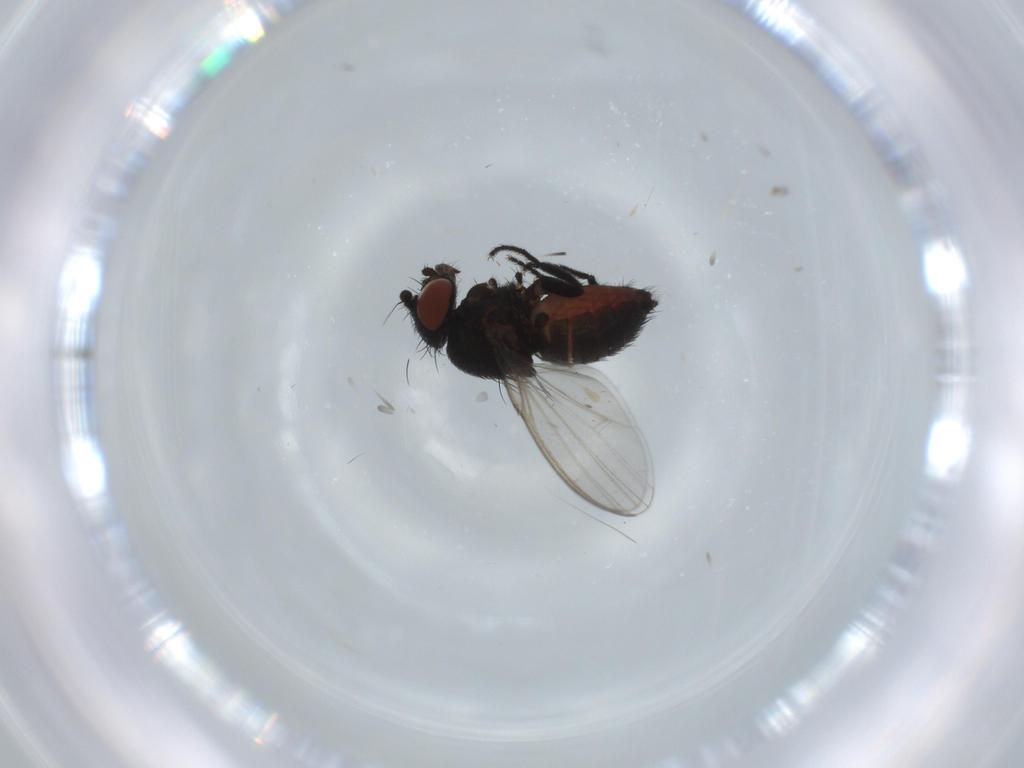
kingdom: Animalia
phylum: Arthropoda
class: Insecta
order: Diptera
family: Milichiidae
